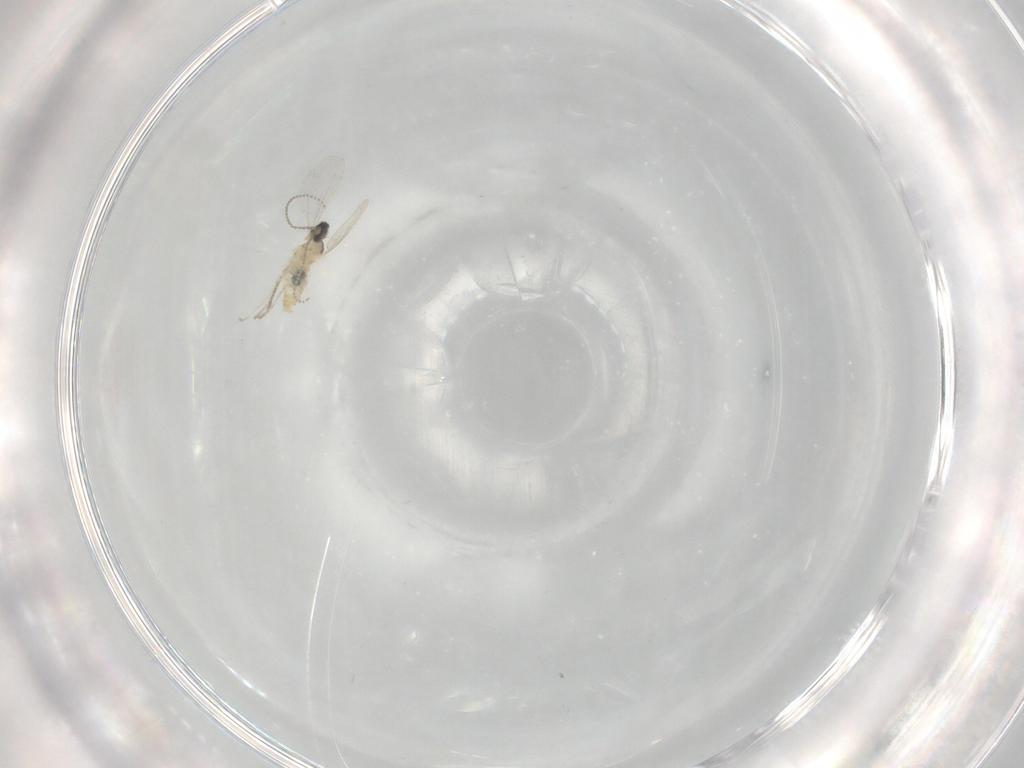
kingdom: Animalia
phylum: Arthropoda
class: Insecta
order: Diptera
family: Cecidomyiidae
